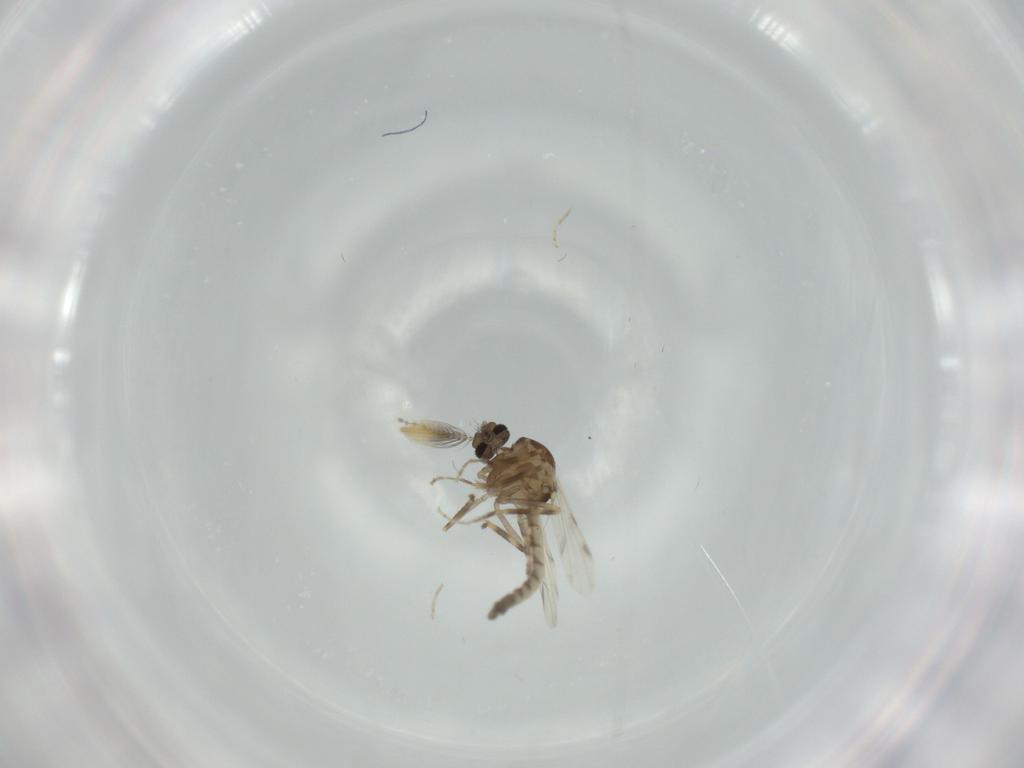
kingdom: Animalia
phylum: Arthropoda
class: Insecta
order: Diptera
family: Ceratopogonidae
